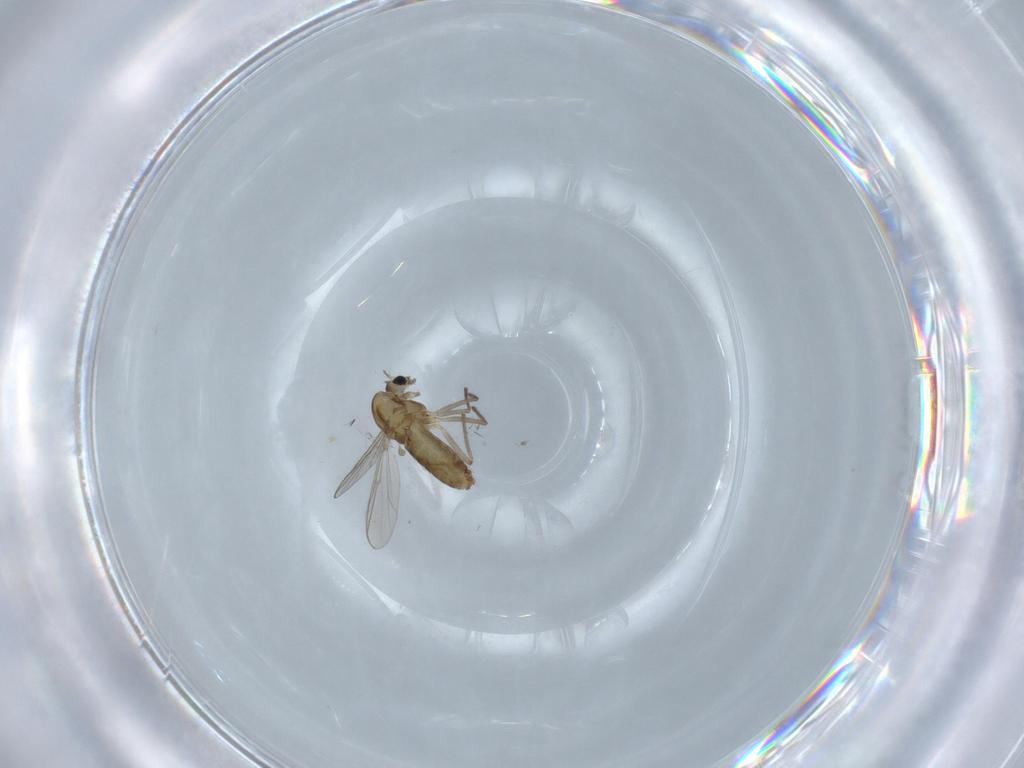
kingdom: Animalia
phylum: Arthropoda
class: Insecta
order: Diptera
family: Chironomidae
